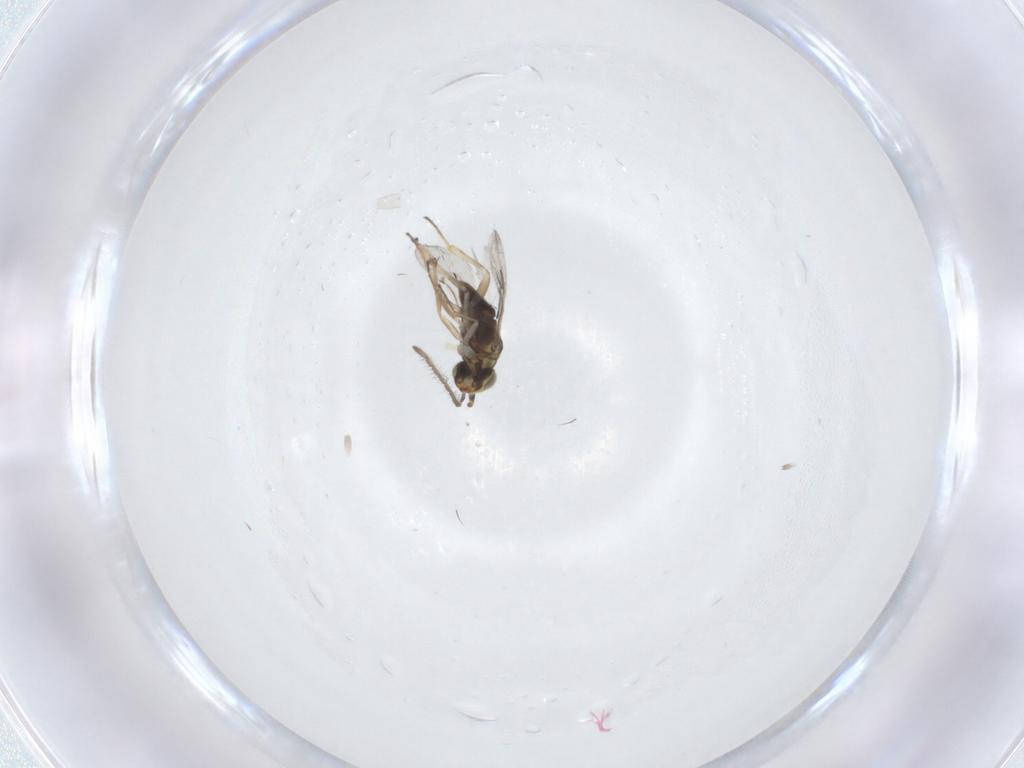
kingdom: Animalia
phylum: Arthropoda
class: Insecta
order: Hymenoptera
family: Encyrtidae
